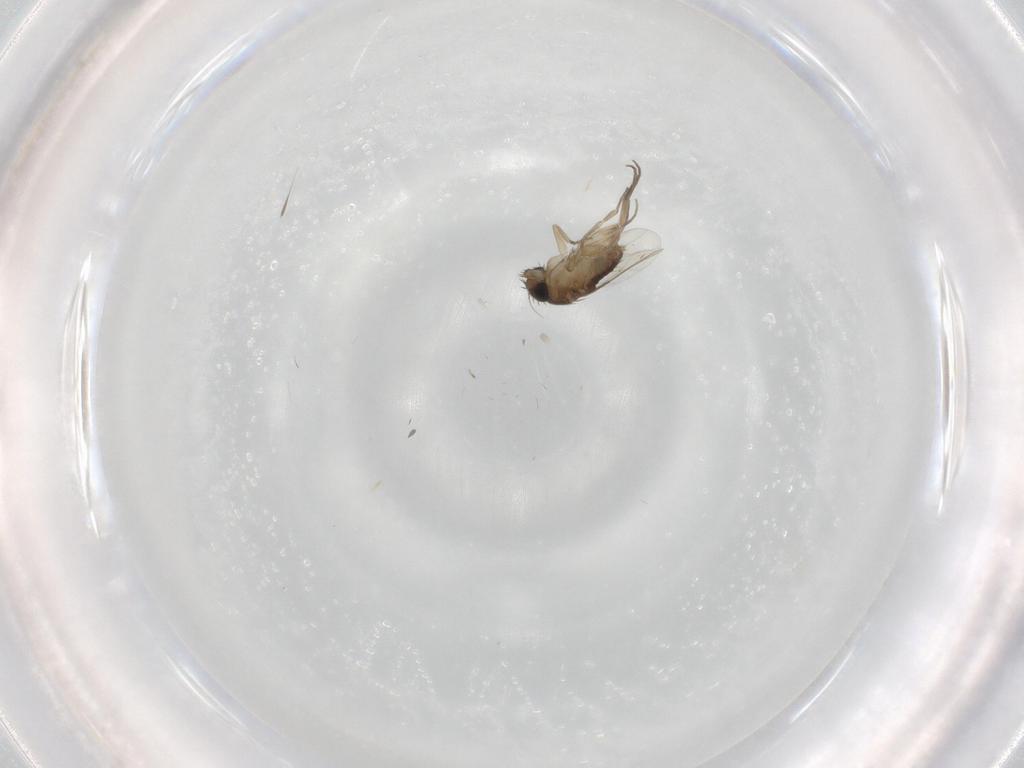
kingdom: Animalia
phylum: Arthropoda
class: Insecta
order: Diptera
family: Phoridae
